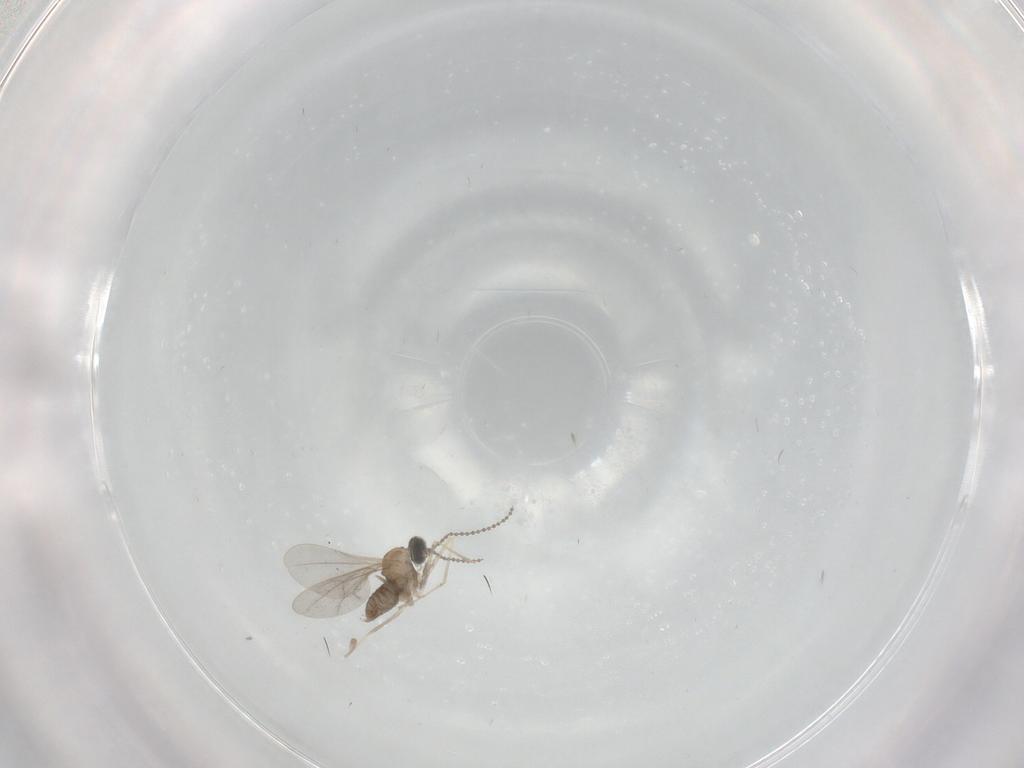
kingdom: Animalia
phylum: Arthropoda
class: Insecta
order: Diptera
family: Cecidomyiidae
